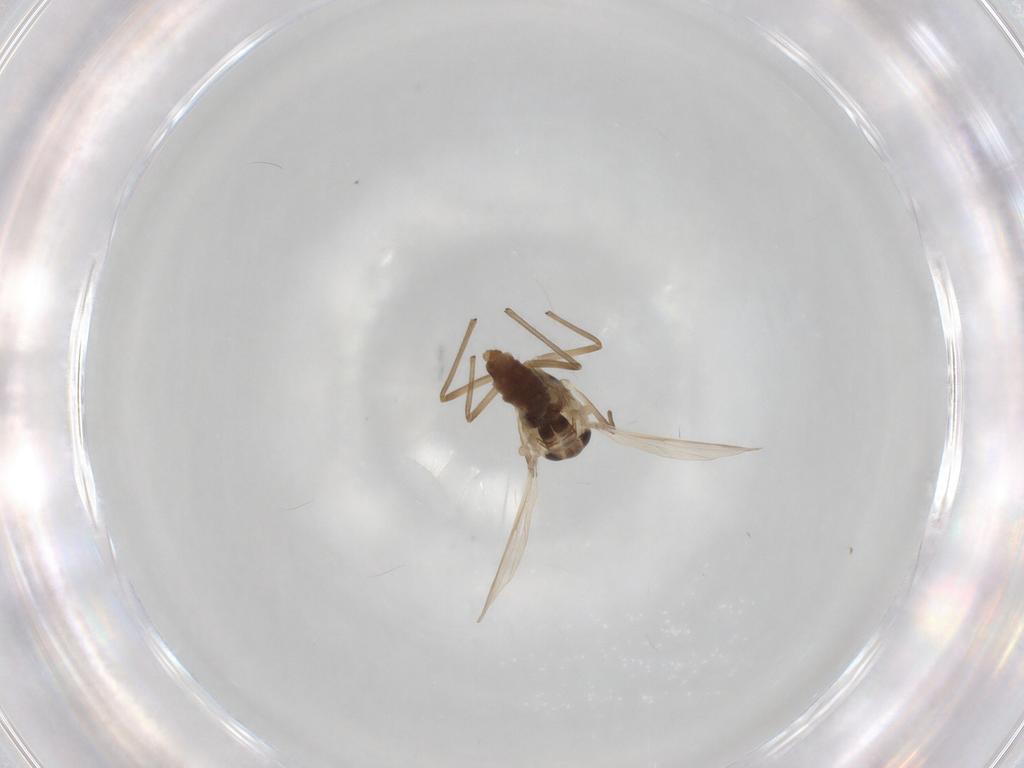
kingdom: Animalia
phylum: Arthropoda
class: Insecta
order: Diptera
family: Chironomidae
